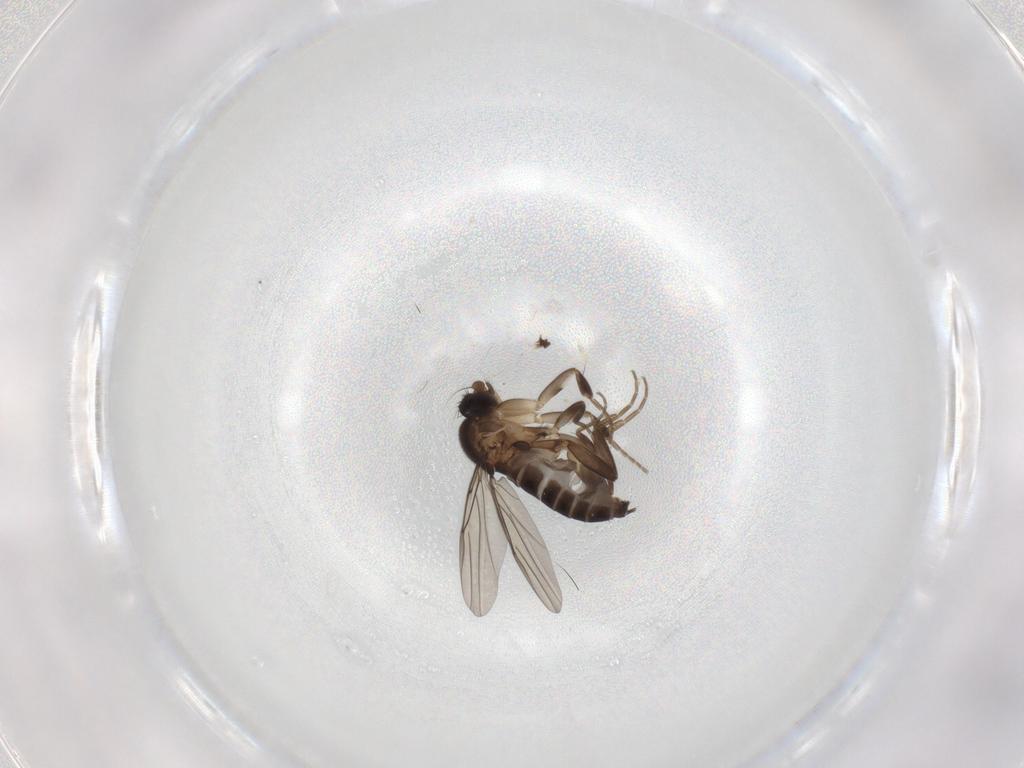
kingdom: Animalia
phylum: Arthropoda
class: Insecta
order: Diptera
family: Phoridae
